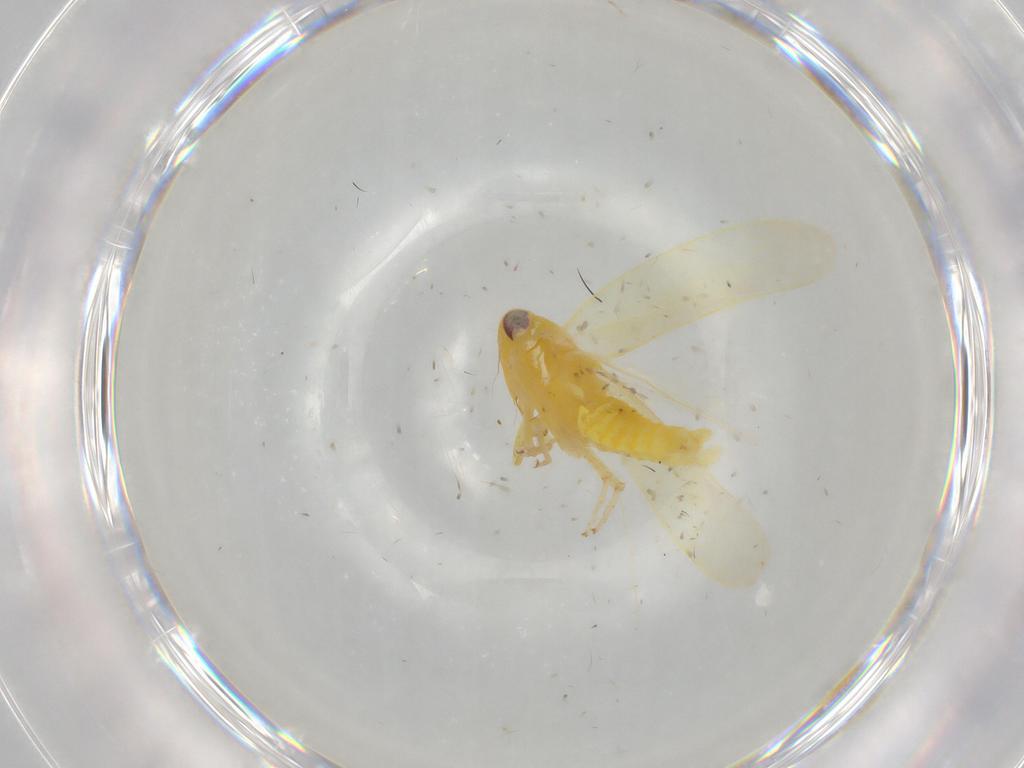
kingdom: Animalia
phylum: Arthropoda
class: Insecta
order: Hemiptera
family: Cicadellidae
